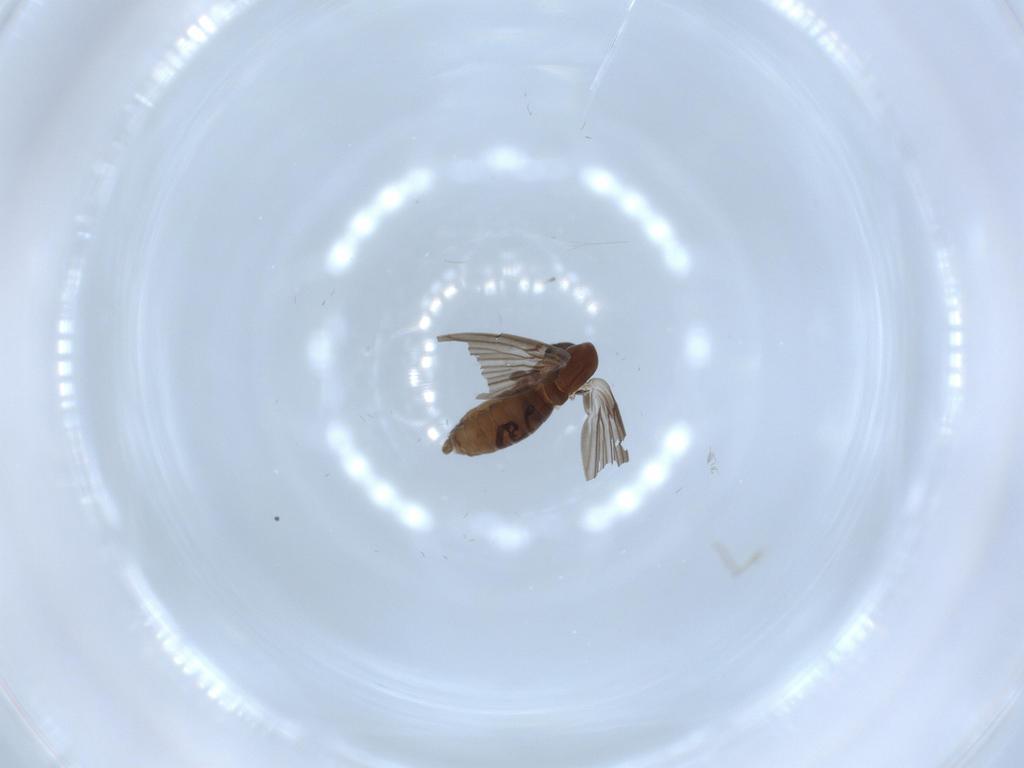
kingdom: Animalia
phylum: Arthropoda
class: Insecta
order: Diptera
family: Psychodidae
